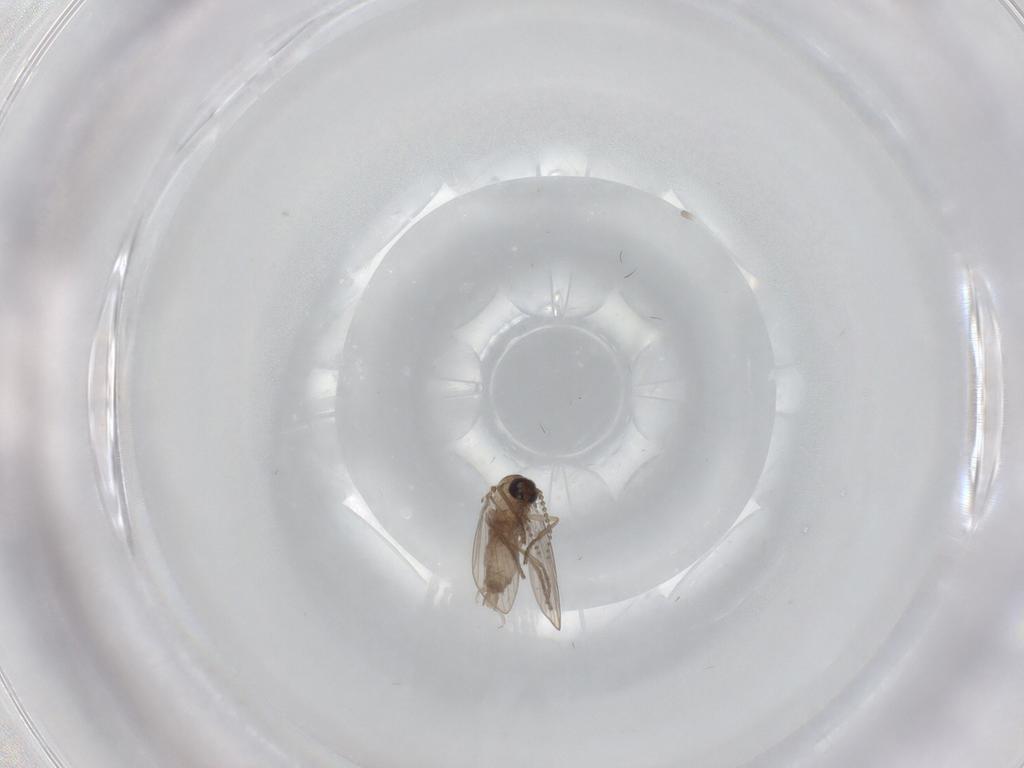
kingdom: Animalia
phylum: Arthropoda
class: Insecta
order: Diptera
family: Psychodidae
